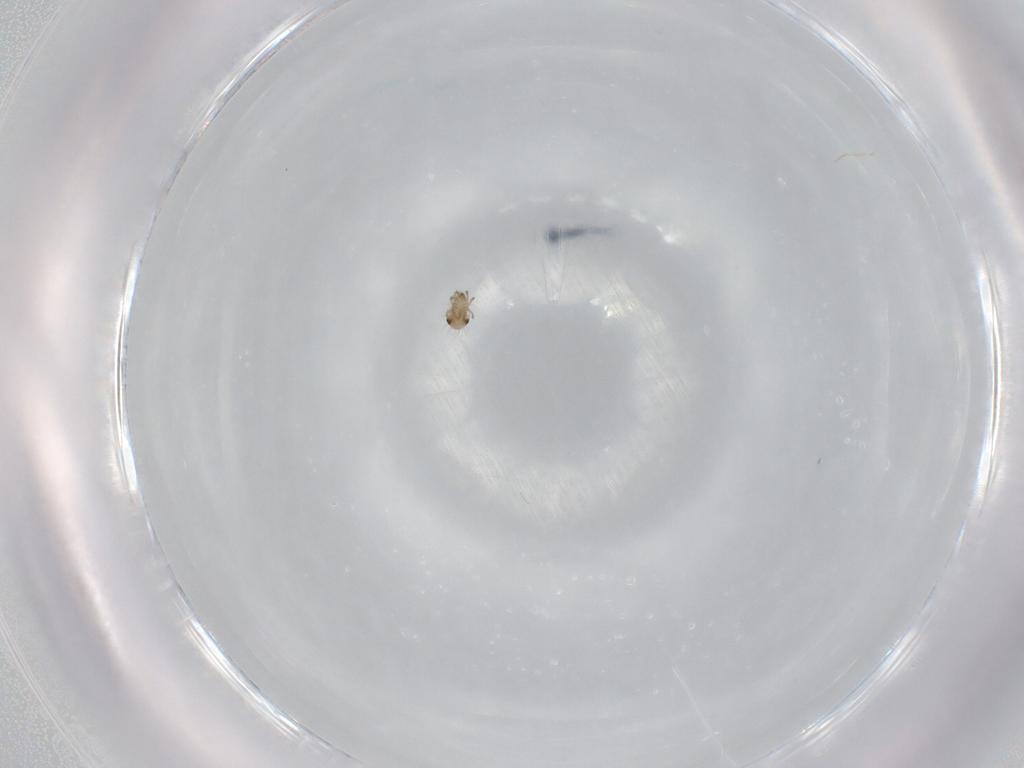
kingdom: Animalia
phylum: Arthropoda
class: Arachnida
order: Sarcoptiformes
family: Humerobatidae
